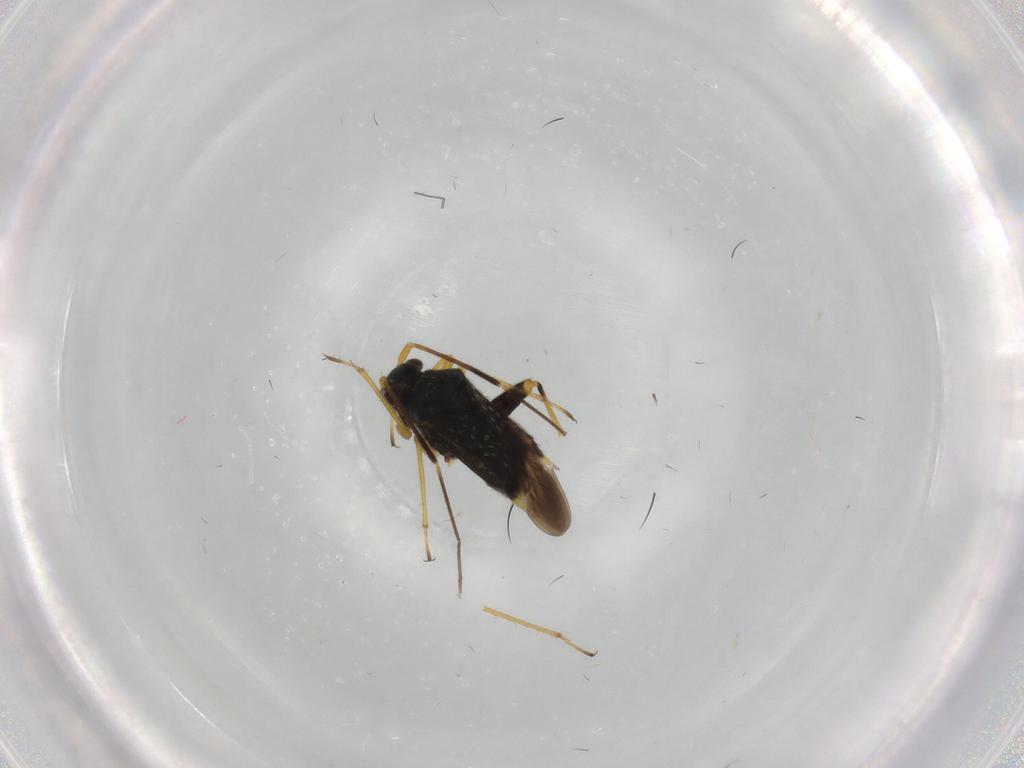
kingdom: Animalia
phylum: Arthropoda
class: Insecta
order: Hemiptera
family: Miridae
